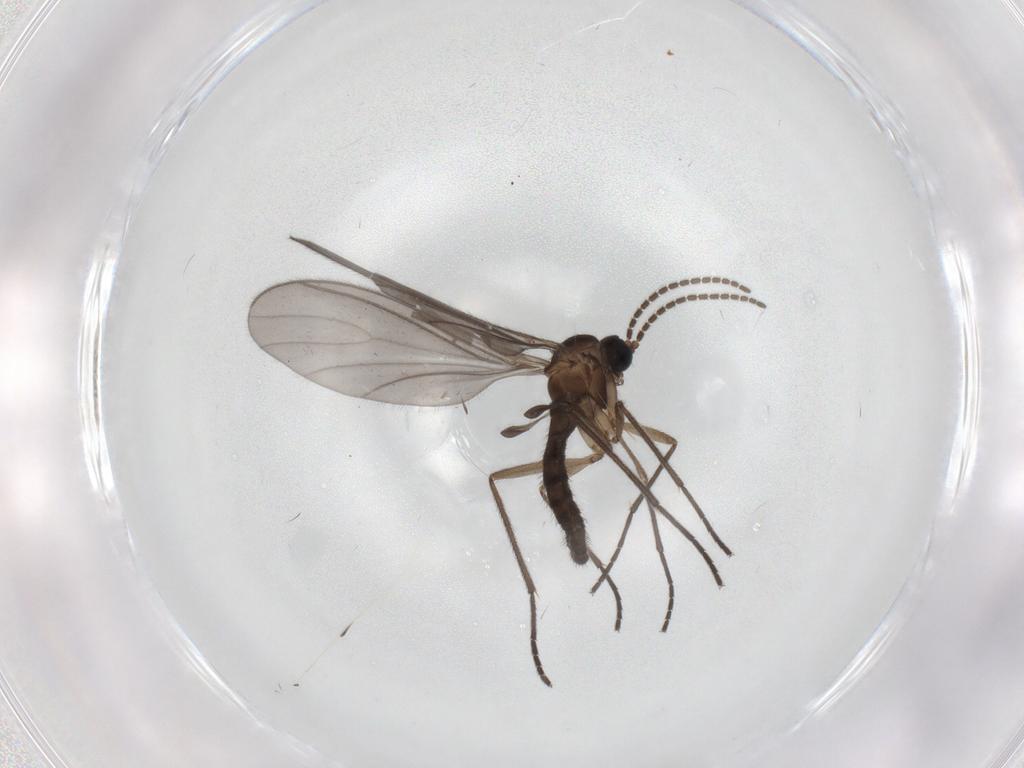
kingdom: Animalia
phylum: Arthropoda
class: Insecta
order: Diptera
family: Sciaridae
